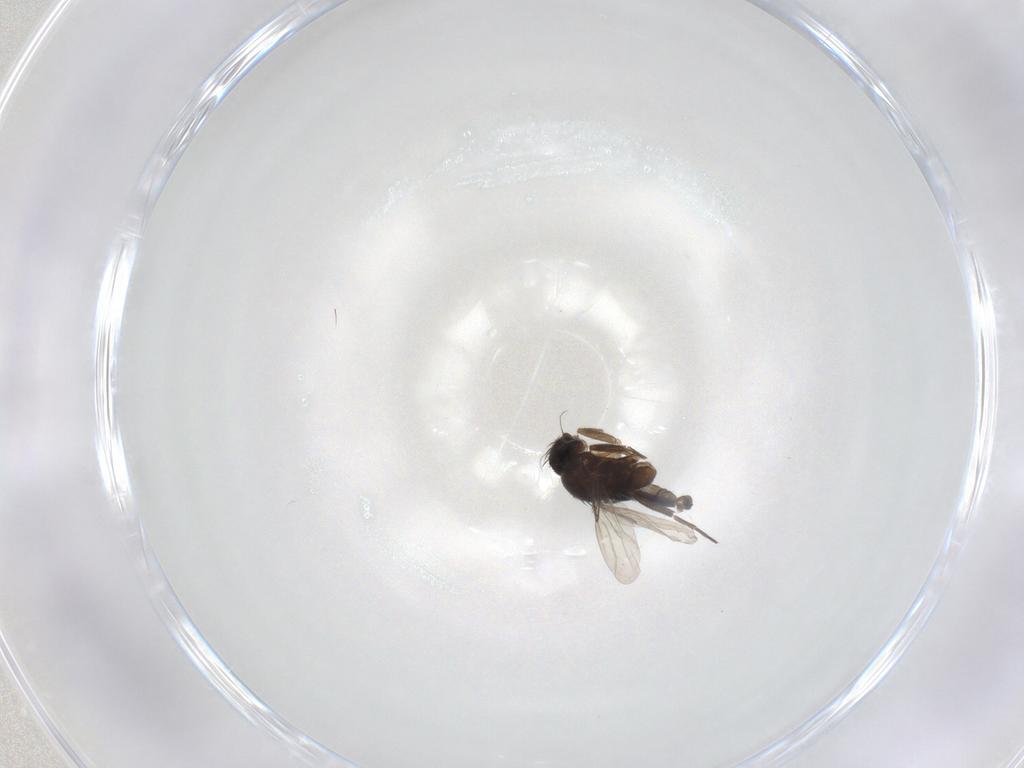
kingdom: Animalia
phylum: Arthropoda
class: Insecta
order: Diptera
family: Phoridae
